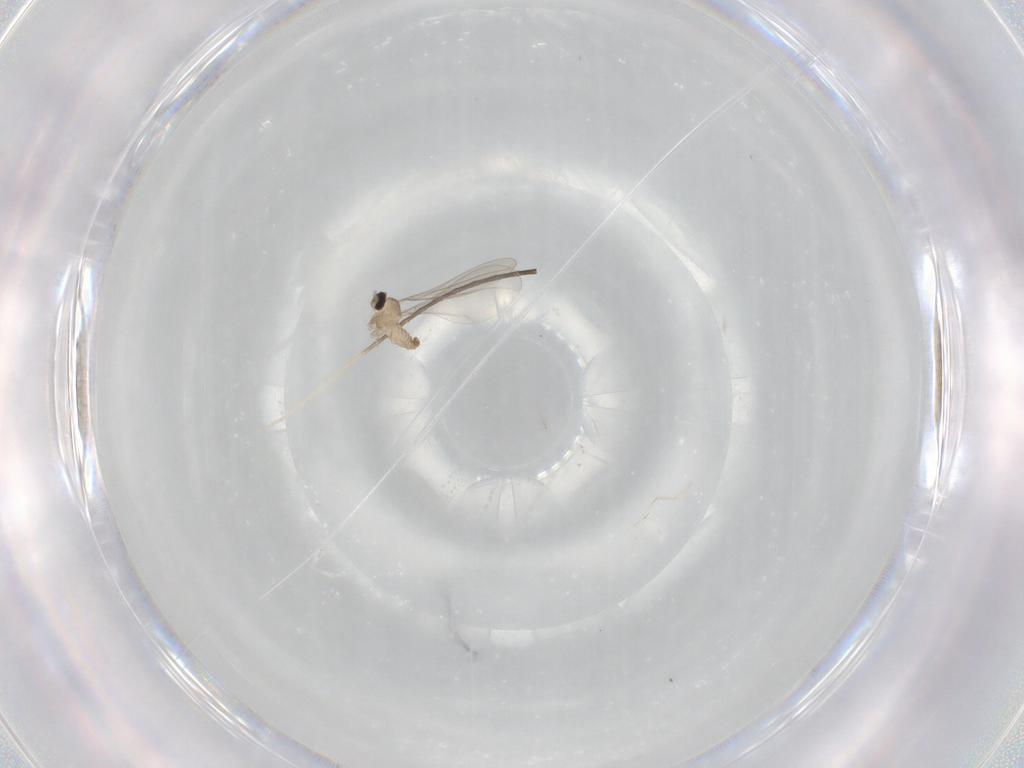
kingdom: Animalia
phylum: Arthropoda
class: Insecta
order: Diptera
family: Cecidomyiidae
